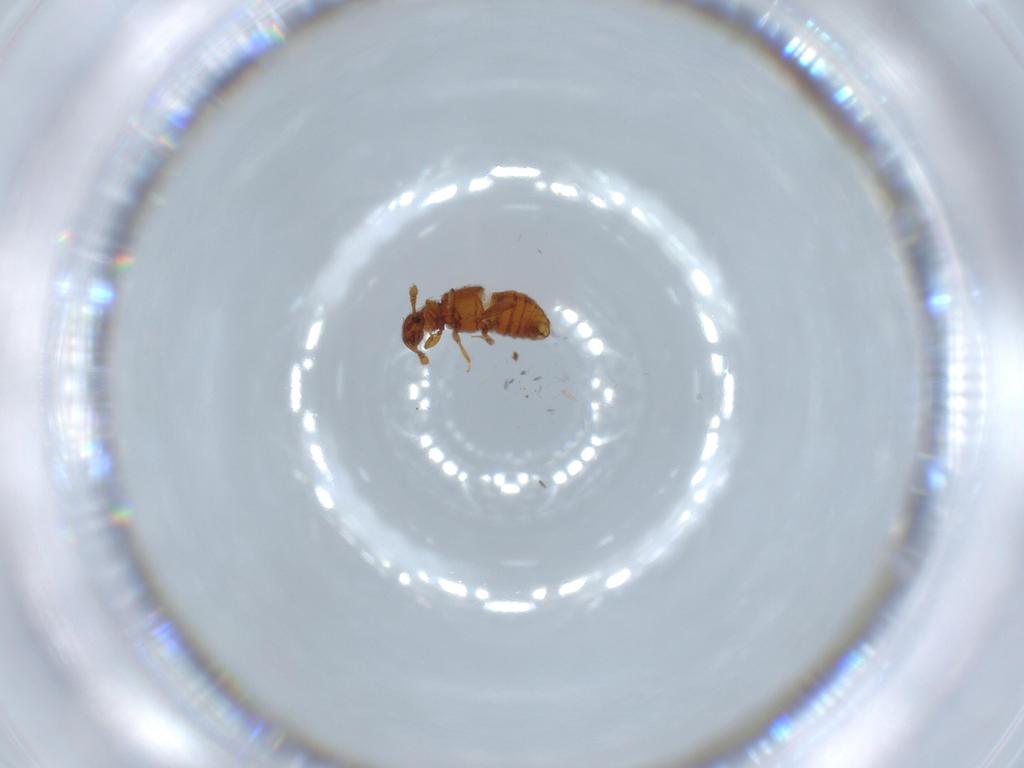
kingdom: Animalia
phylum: Arthropoda
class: Insecta
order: Coleoptera
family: Staphylinidae
